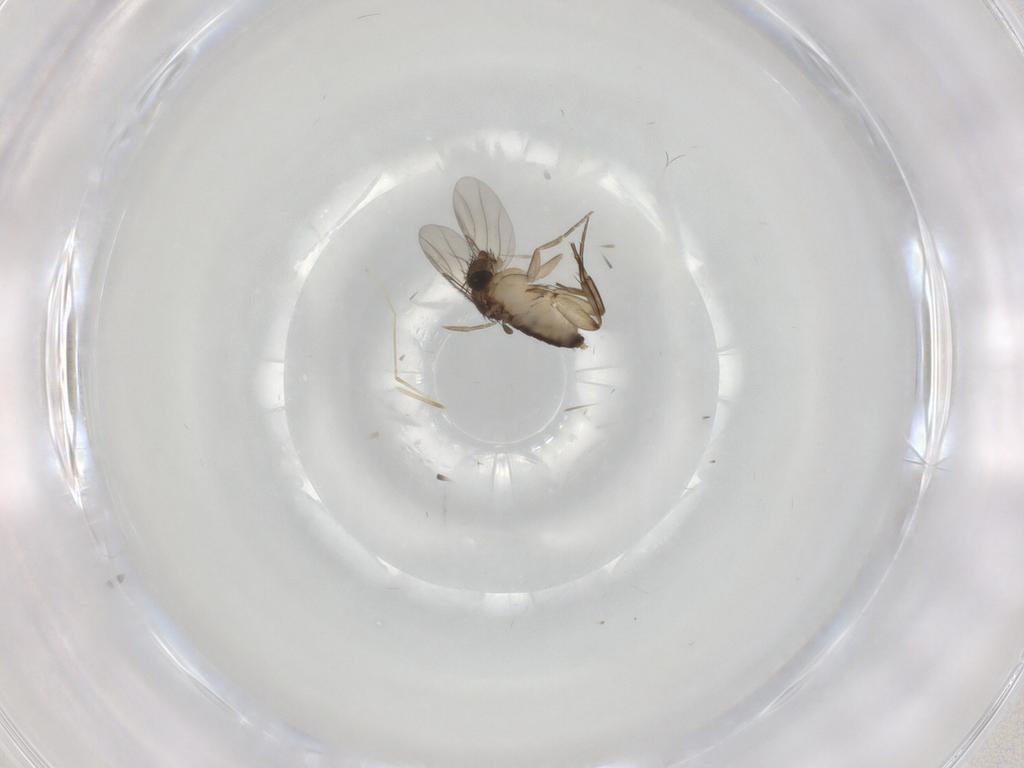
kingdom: Animalia
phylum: Arthropoda
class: Insecta
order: Diptera
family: Phoridae
